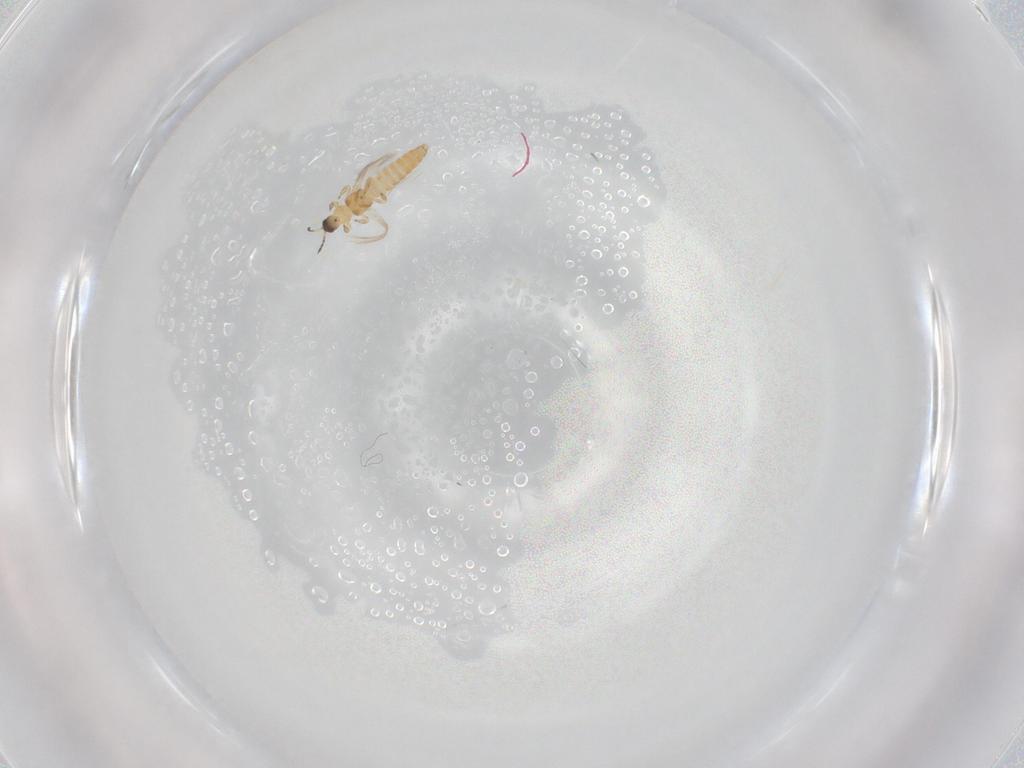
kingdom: Animalia
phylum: Arthropoda
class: Insecta
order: Thysanoptera
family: Thripidae
